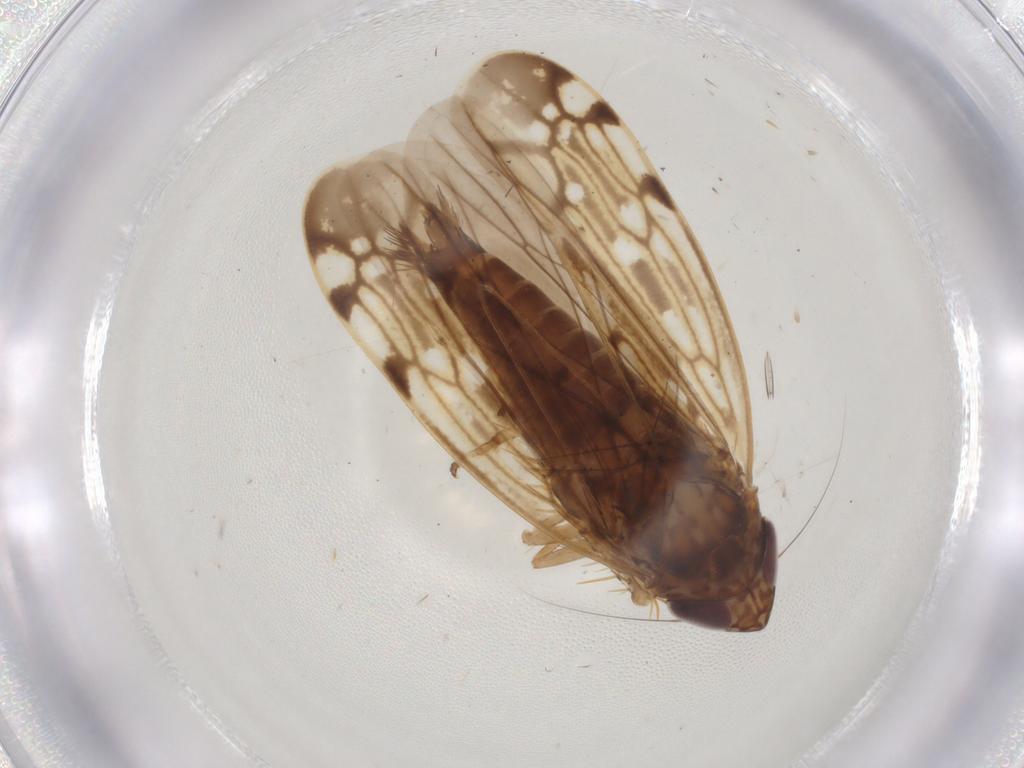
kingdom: Animalia
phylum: Arthropoda
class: Insecta
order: Hemiptera
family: Cicadellidae
